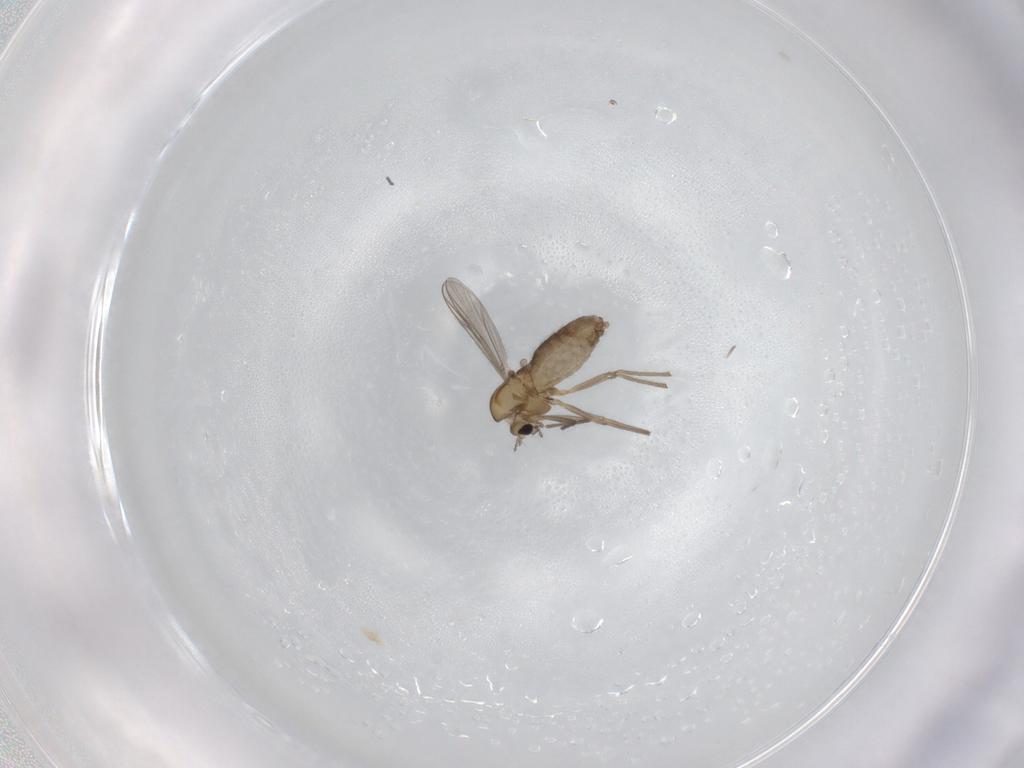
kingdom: Animalia
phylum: Arthropoda
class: Insecta
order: Diptera
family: Chironomidae
